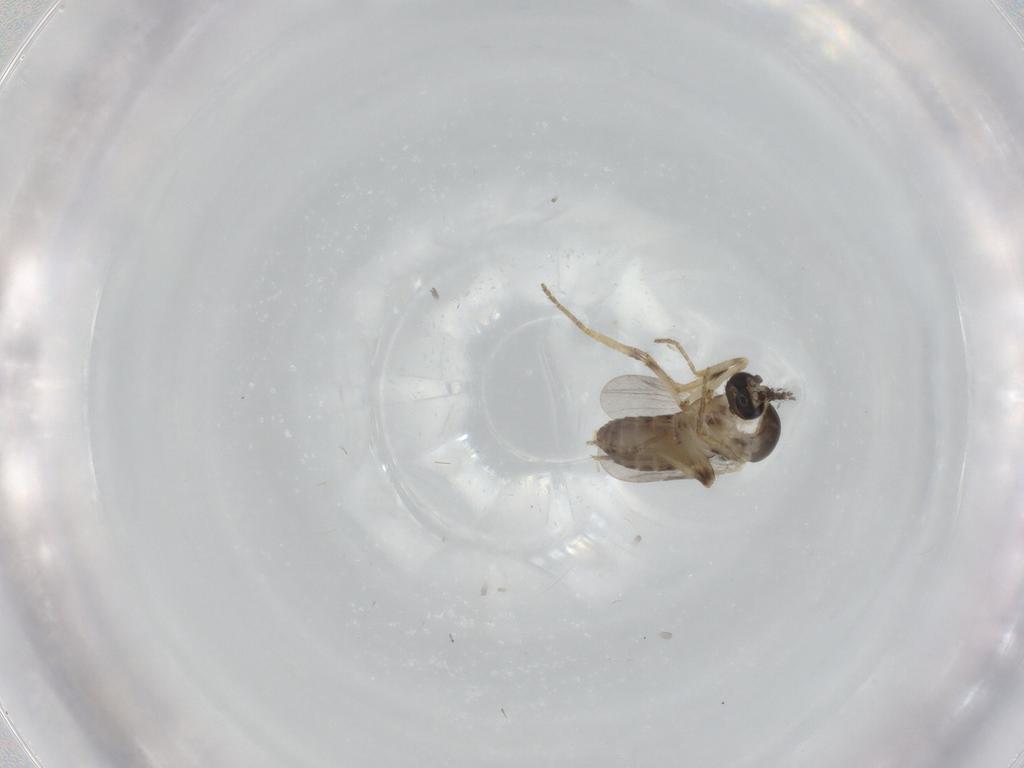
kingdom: Animalia
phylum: Arthropoda
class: Insecta
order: Diptera
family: Ceratopogonidae
